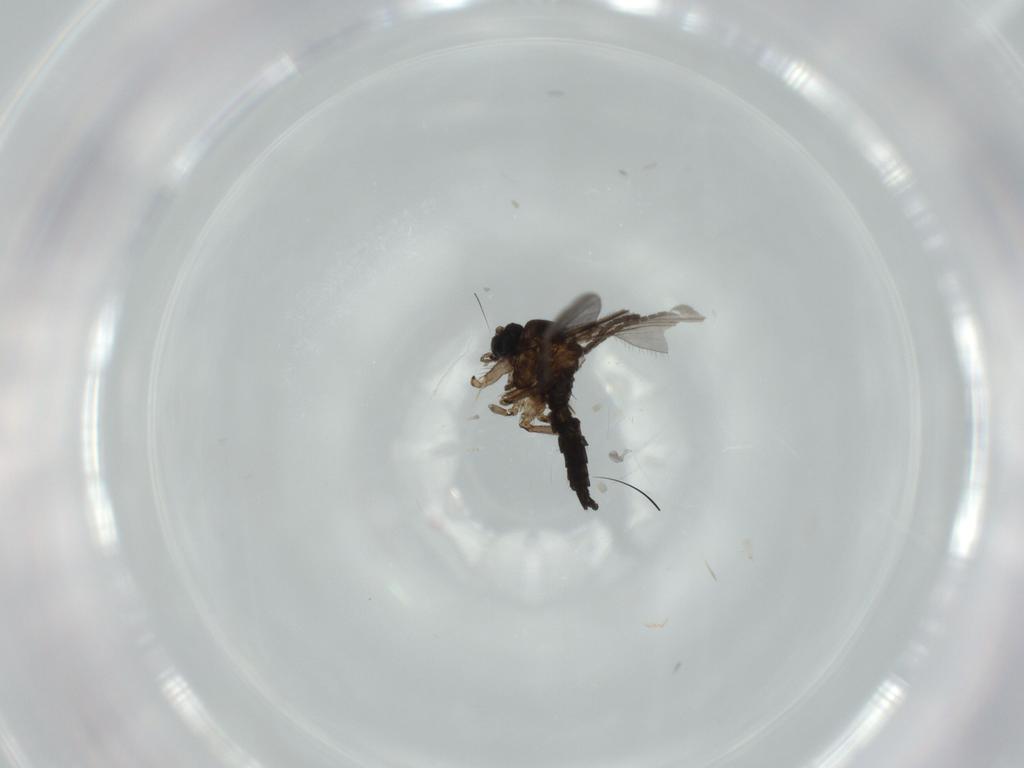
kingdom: Animalia
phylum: Arthropoda
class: Insecta
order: Diptera
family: Sciaridae
